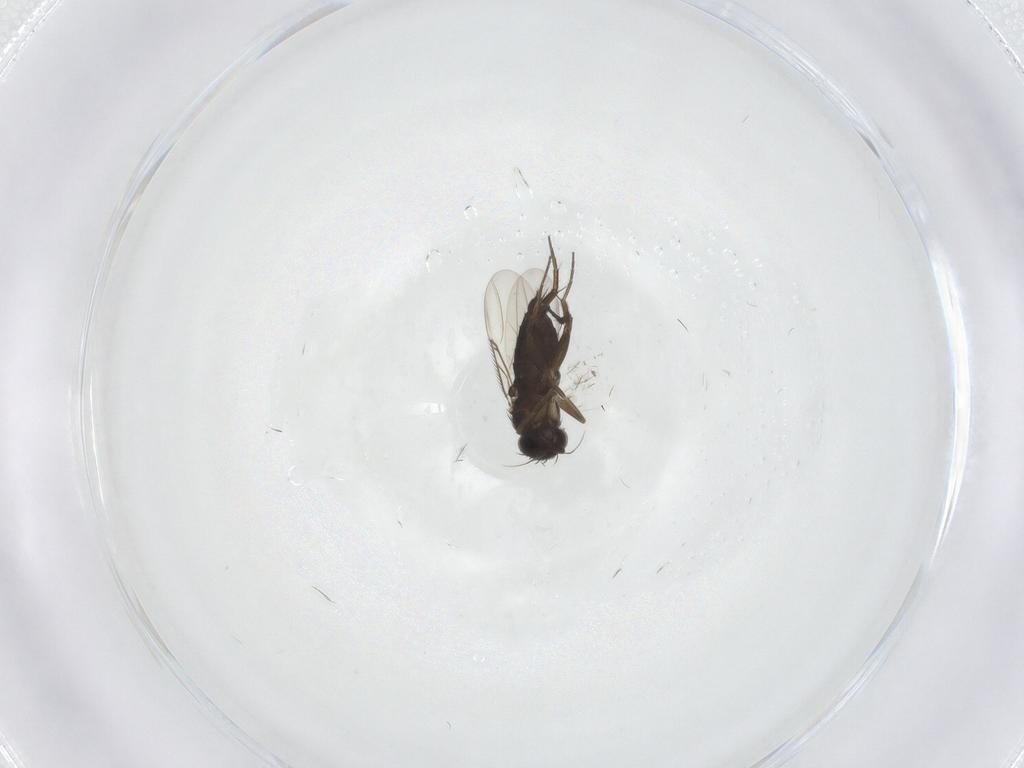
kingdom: Animalia
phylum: Arthropoda
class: Insecta
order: Diptera
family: Phoridae
